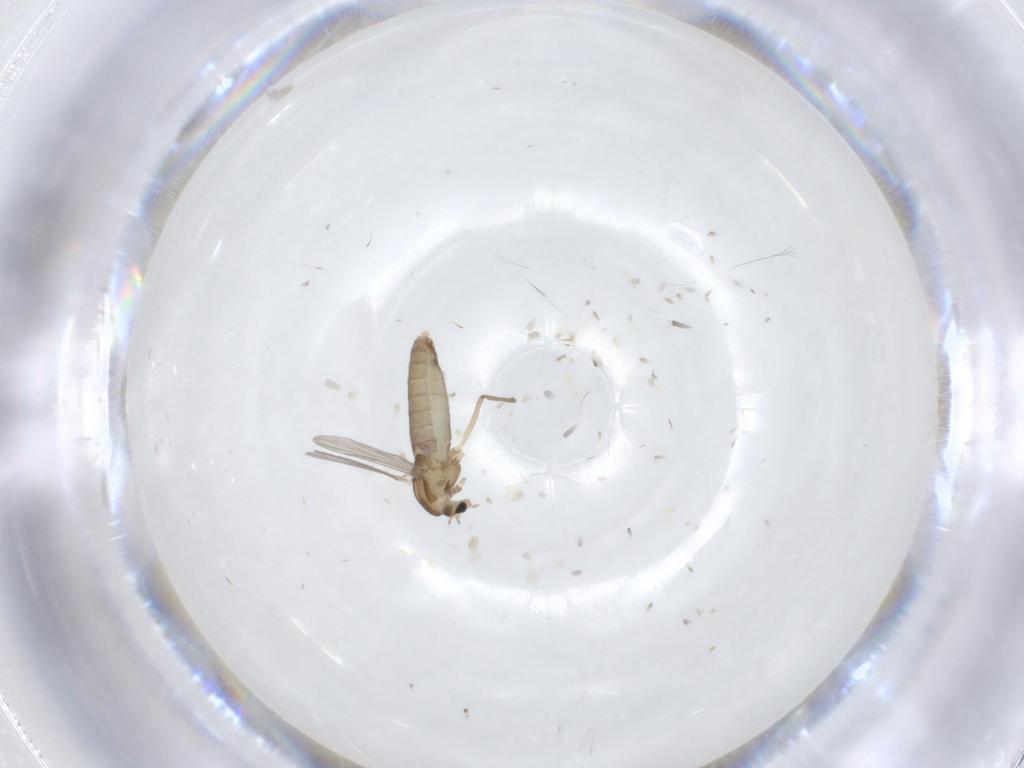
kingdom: Animalia
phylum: Arthropoda
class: Insecta
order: Diptera
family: Chironomidae
